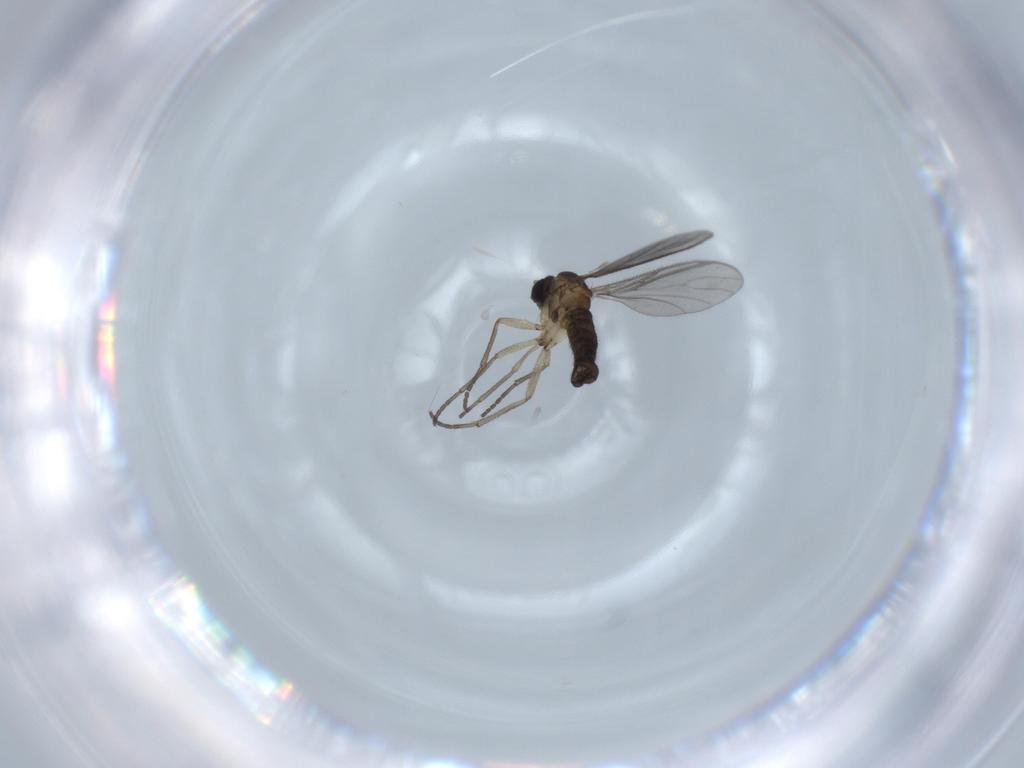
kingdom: Animalia
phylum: Arthropoda
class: Insecta
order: Diptera
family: Sciaridae
